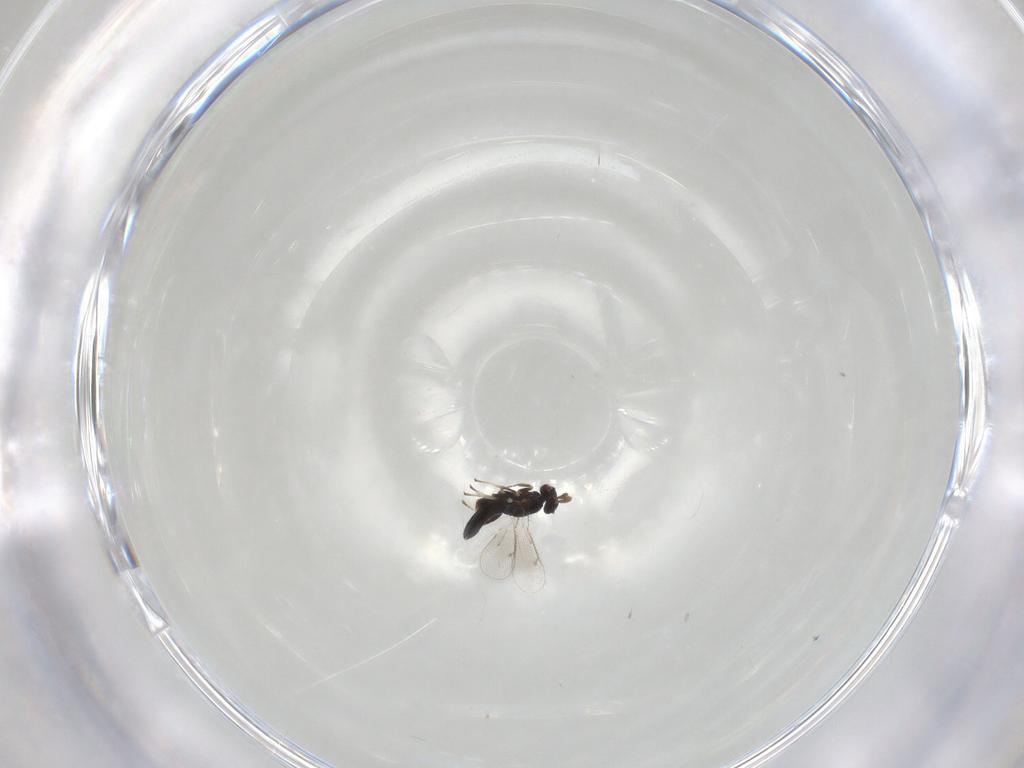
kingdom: Animalia
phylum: Arthropoda
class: Insecta
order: Hymenoptera
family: Eulophidae
